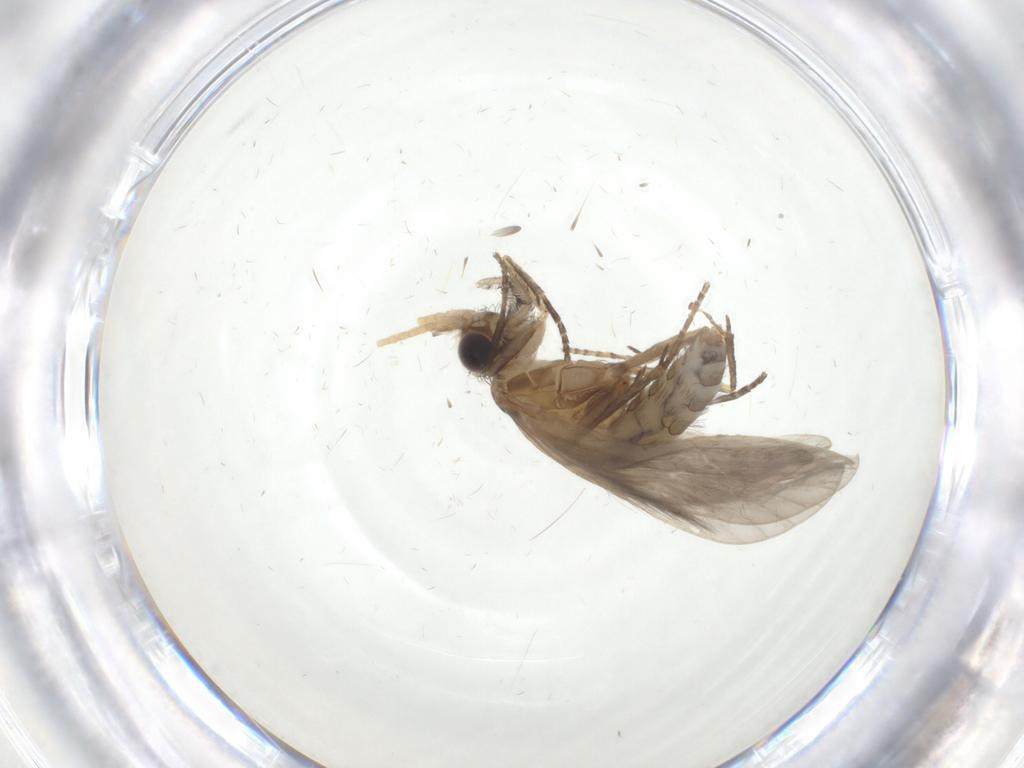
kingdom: Animalia
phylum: Arthropoda
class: Insecta
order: Trichoptera
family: Helicopsychidae
